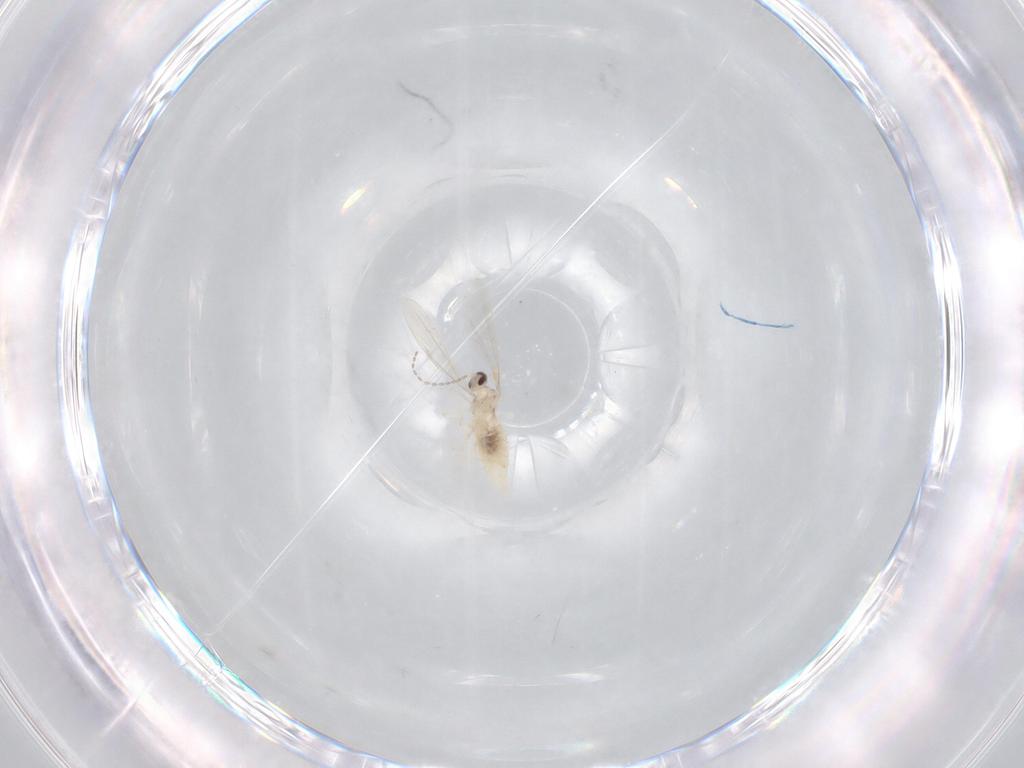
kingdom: Animalia
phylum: Arthropoda
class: Insecta
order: Diptera
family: Cecidomyiidae
